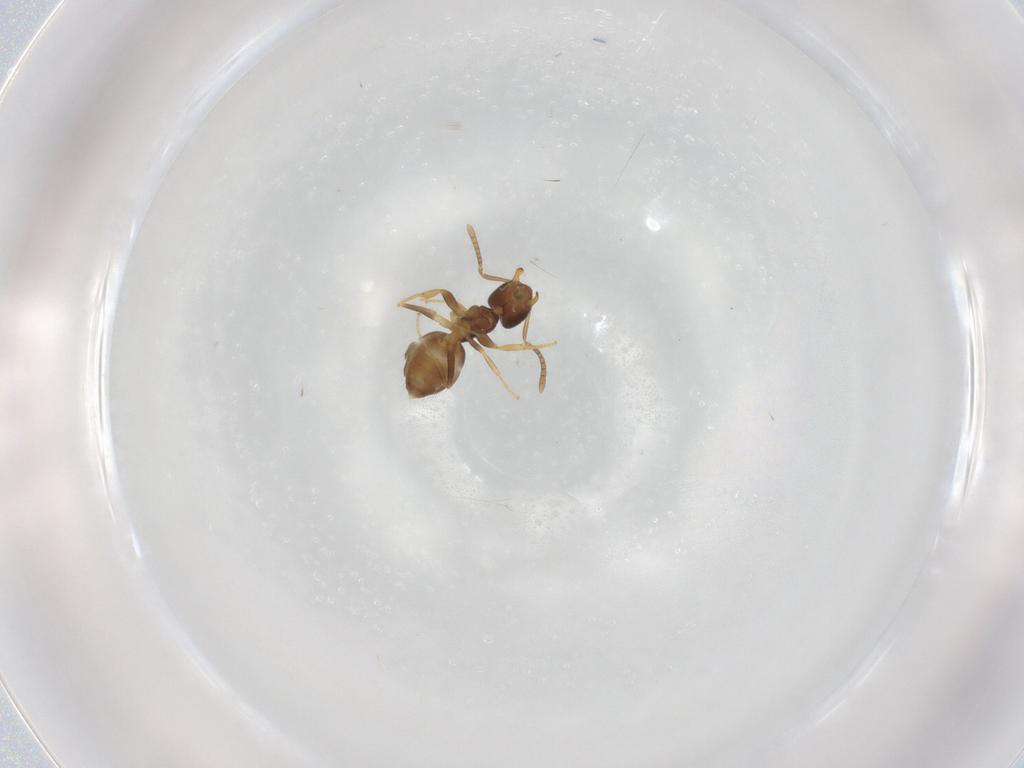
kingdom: Animalia
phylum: Arthropoda
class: Insecta
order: Hymenoptera
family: Formicidae
